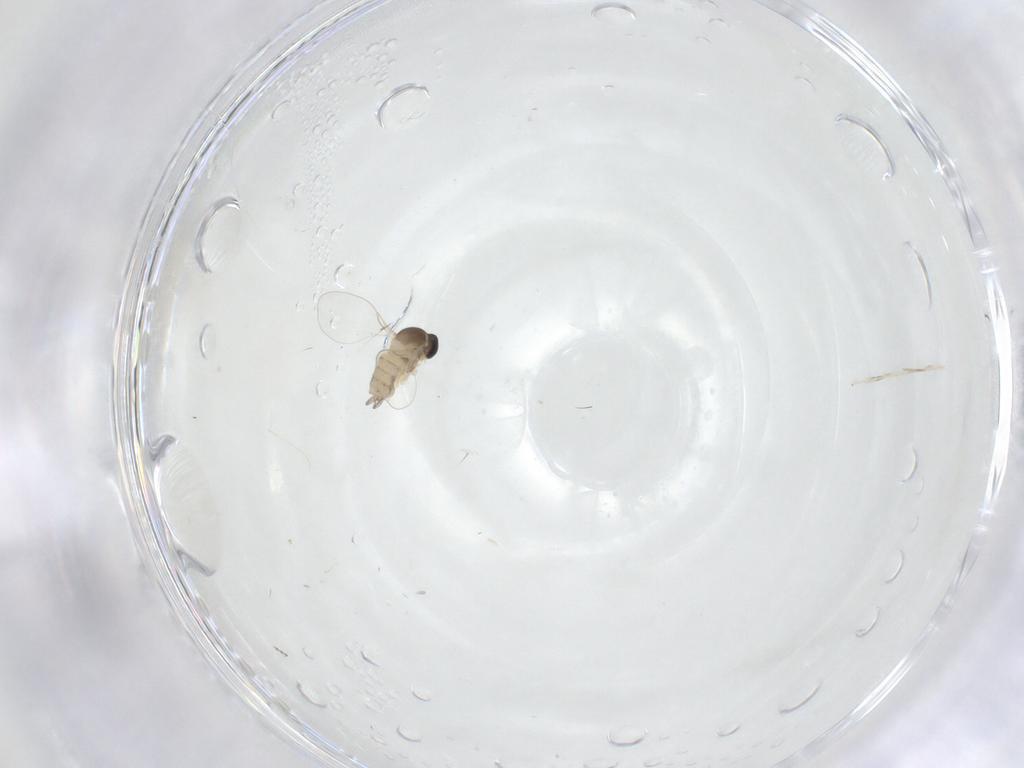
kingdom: Animalia
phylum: Arthropoda
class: Insecta
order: Diptera
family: Cecidomyiidae
